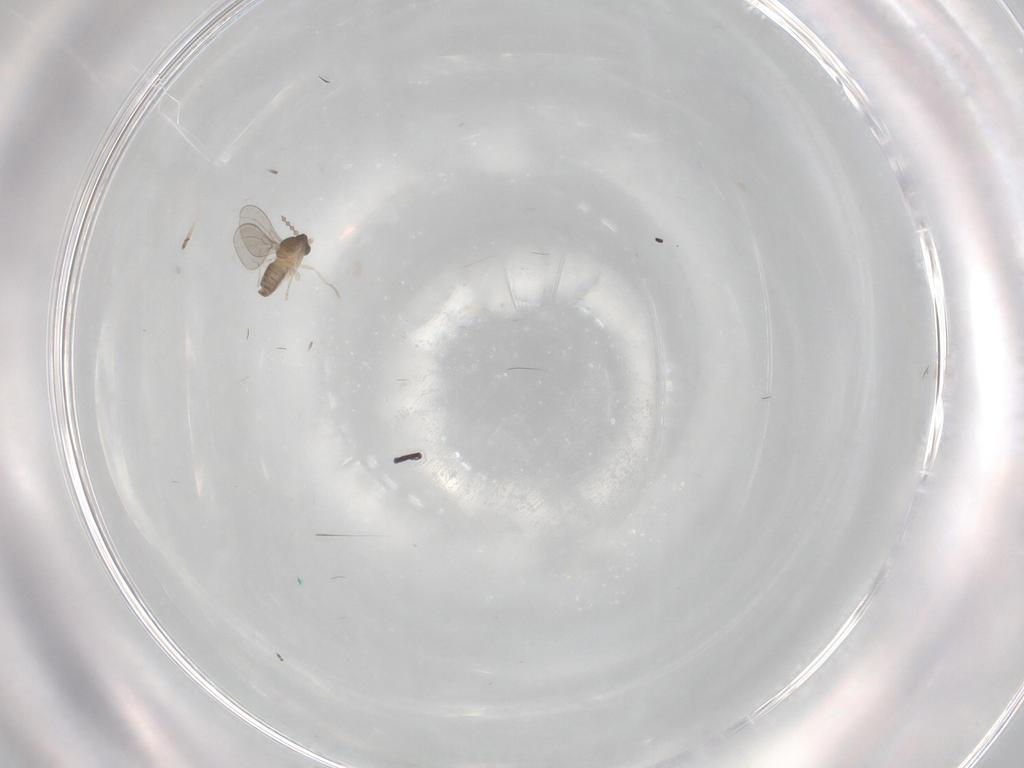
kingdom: Animalia
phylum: Arthropoda
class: Insecta
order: Diptera
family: Cecidomyiidae
